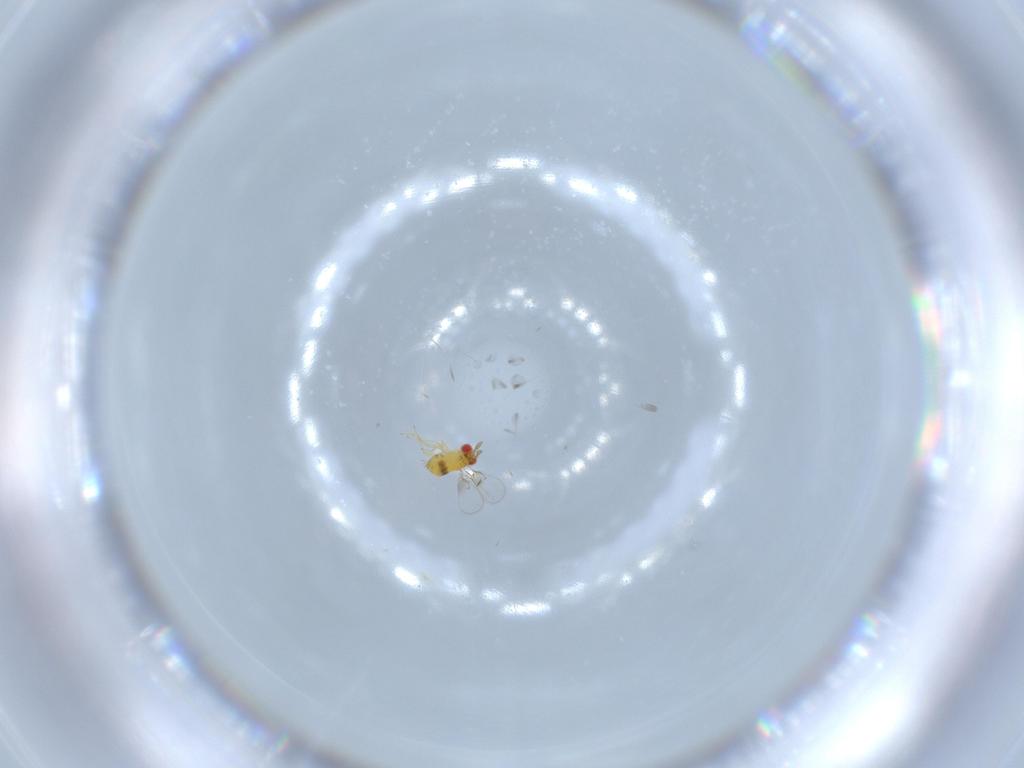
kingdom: Animalia
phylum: Arthropoda
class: Insecta
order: Hymenoptera
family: Trichogrammatidae
